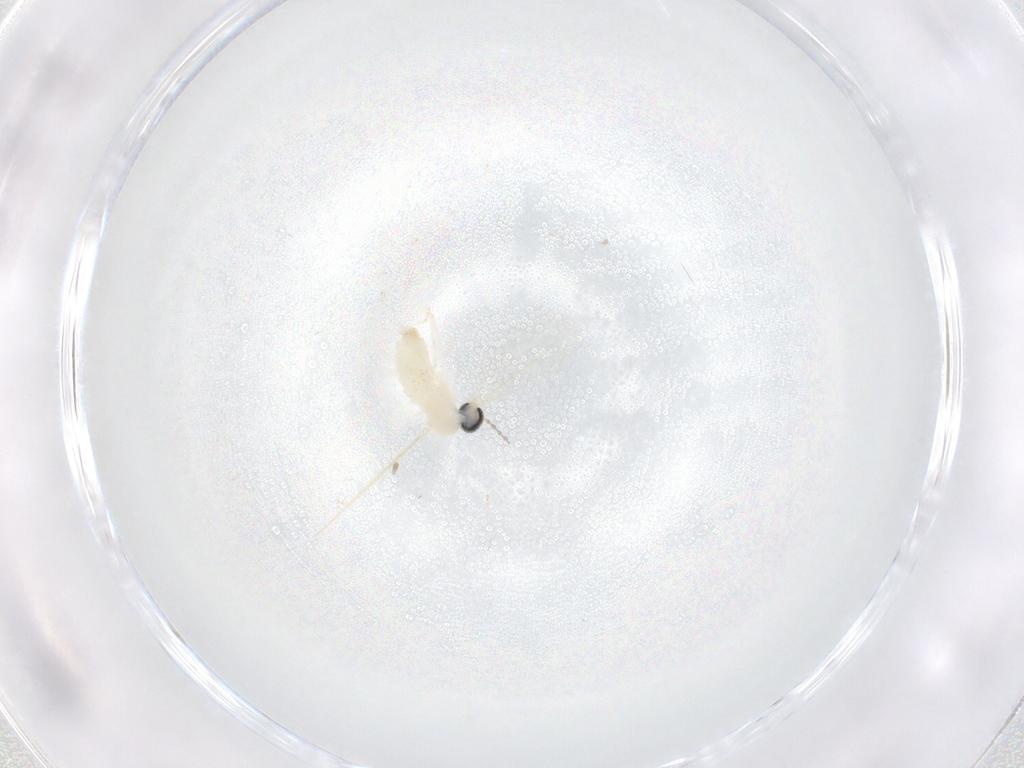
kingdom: Animalia
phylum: Arthropoda
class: Insecta
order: Diptera
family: Cecidomyiidae
